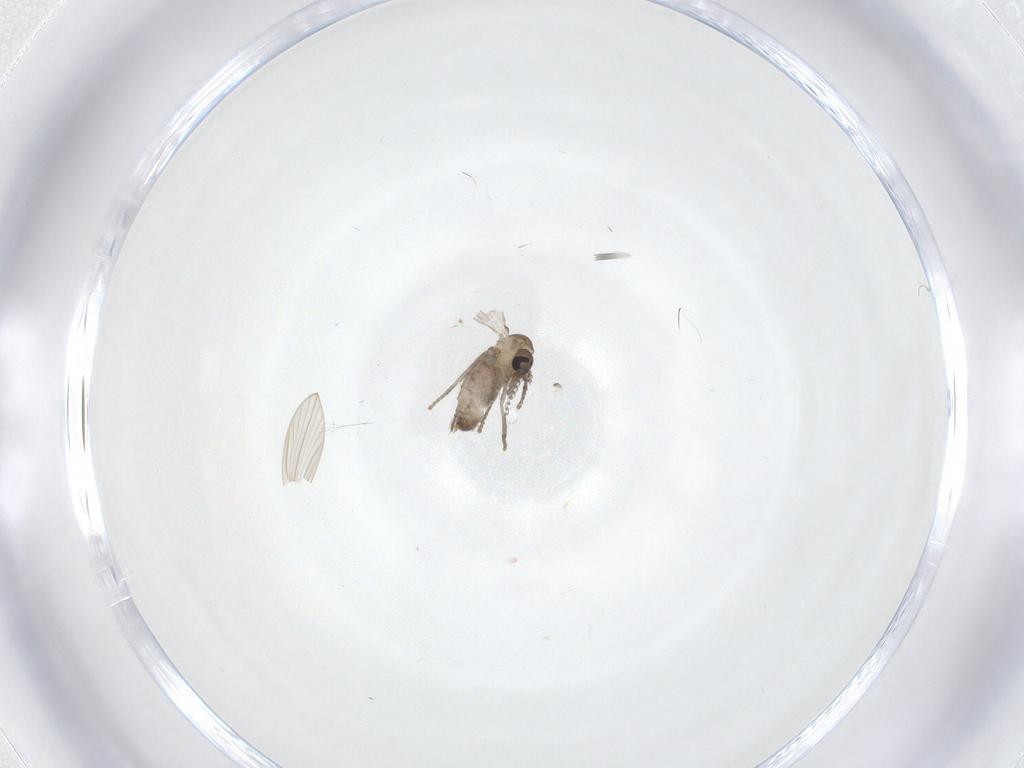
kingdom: Animalia
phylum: Arthropoda
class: Insecta
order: Diptera
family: Psychodidae
